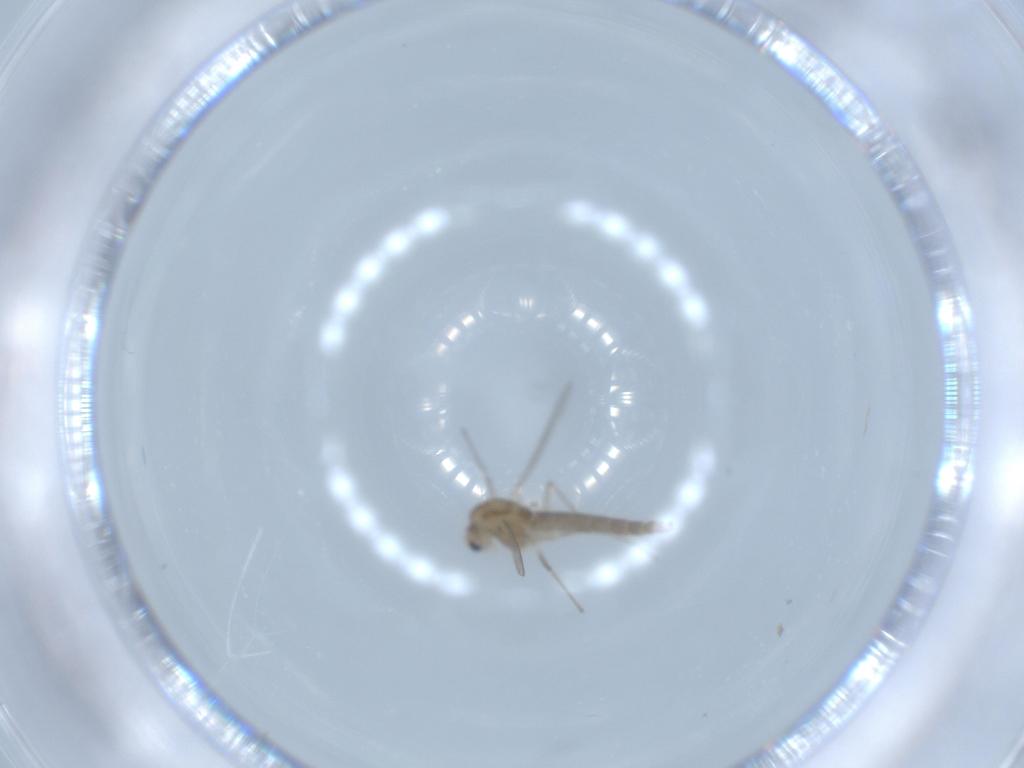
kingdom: Animalia
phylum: Arthropoda
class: Insecta
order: Diptera
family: Chironomidae
